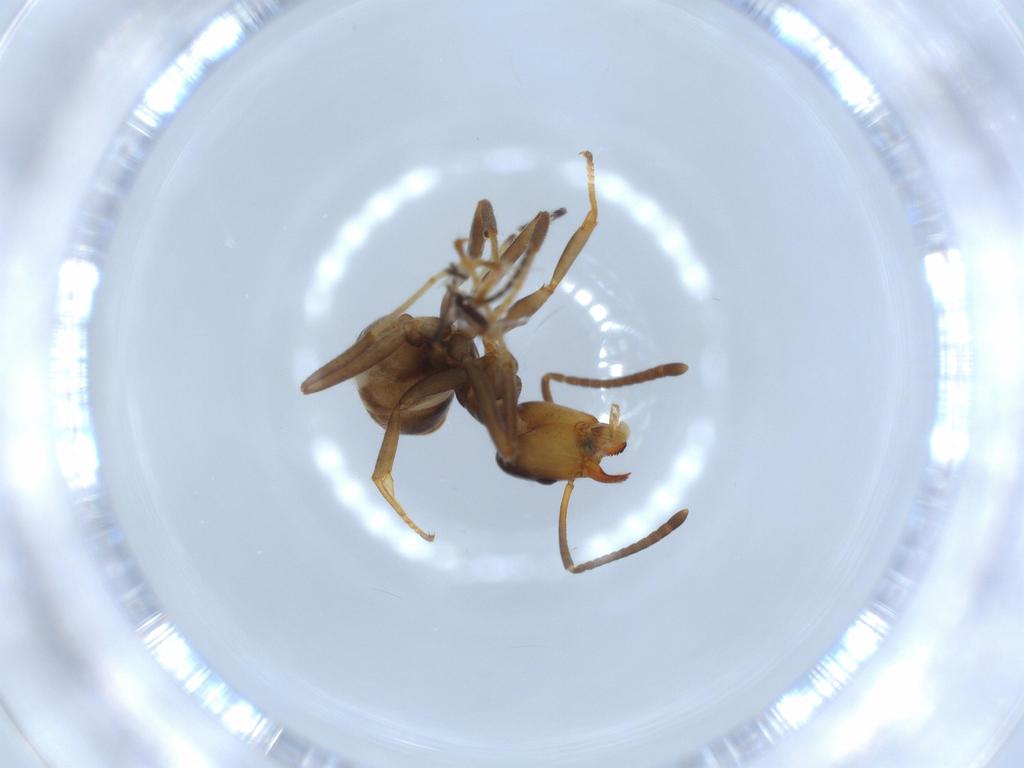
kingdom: Animalia
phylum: Arthropoda
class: Insecta
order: Hymenoptera
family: Formicidae
